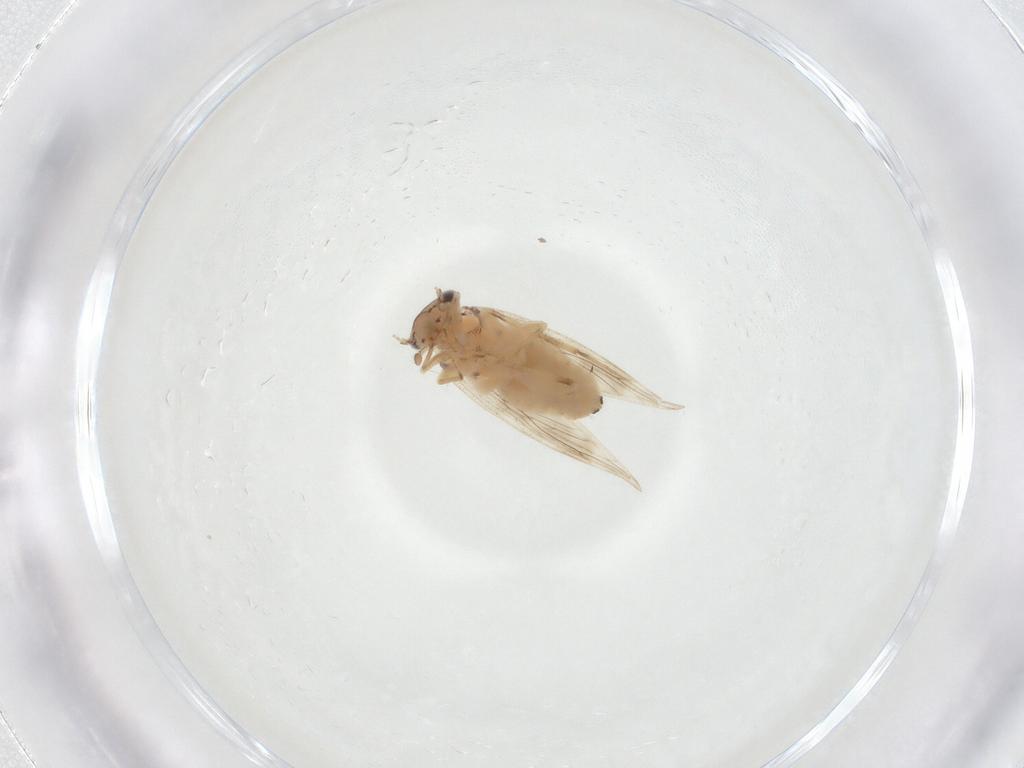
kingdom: Animalia
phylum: Arthropoda
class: Insecta
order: Psocodea
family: Lepidopsocidae
